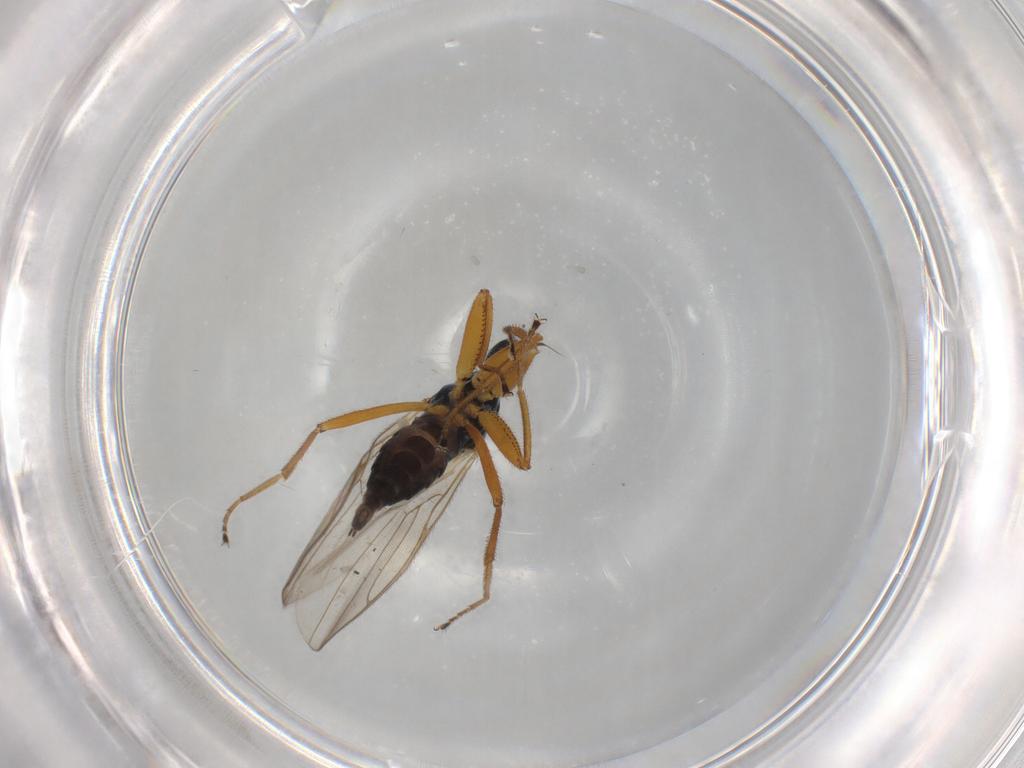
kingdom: Animalia
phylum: Arthropoda
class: Insecta
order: Diptera
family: Hybotidae
